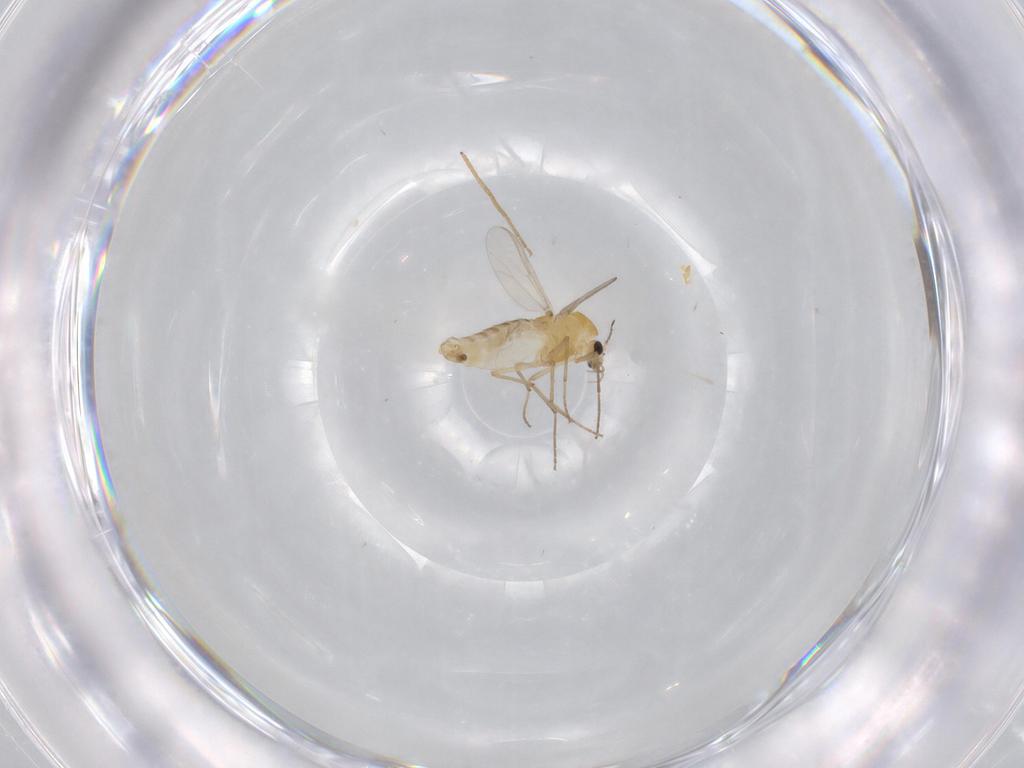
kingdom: Animalia
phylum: Arthropoda
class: Insecta
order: Diptera
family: Chironomidae
